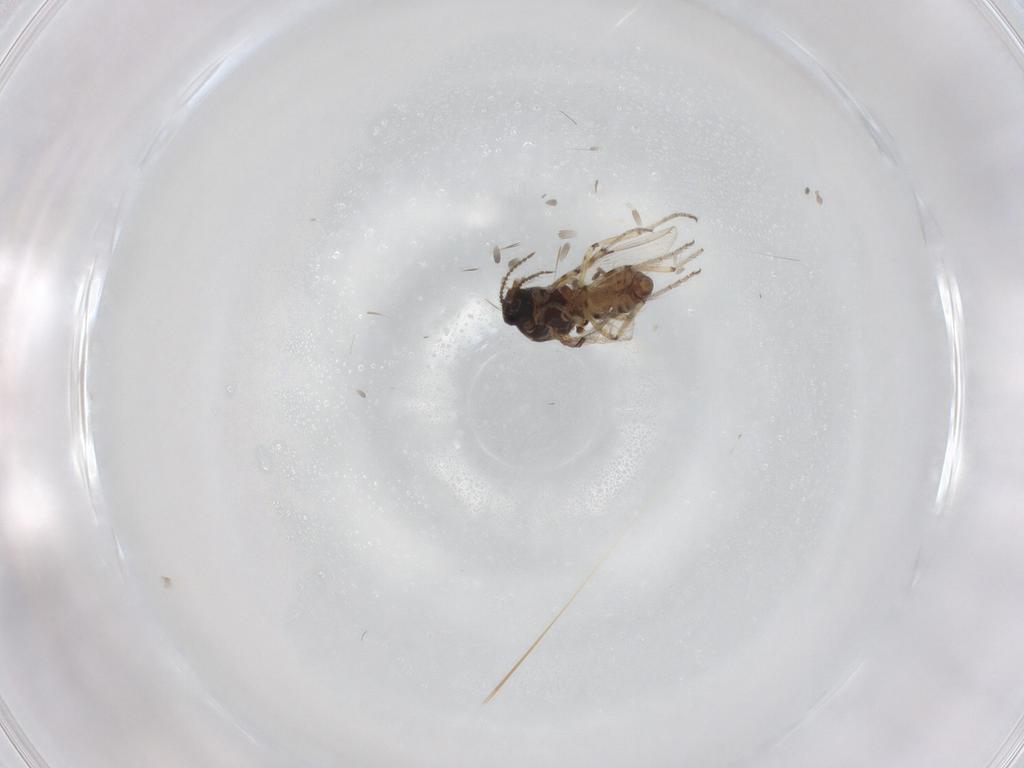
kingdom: Animalia
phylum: Arthropoda
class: Insecta
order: Diptera
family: Ceratopogonidae
